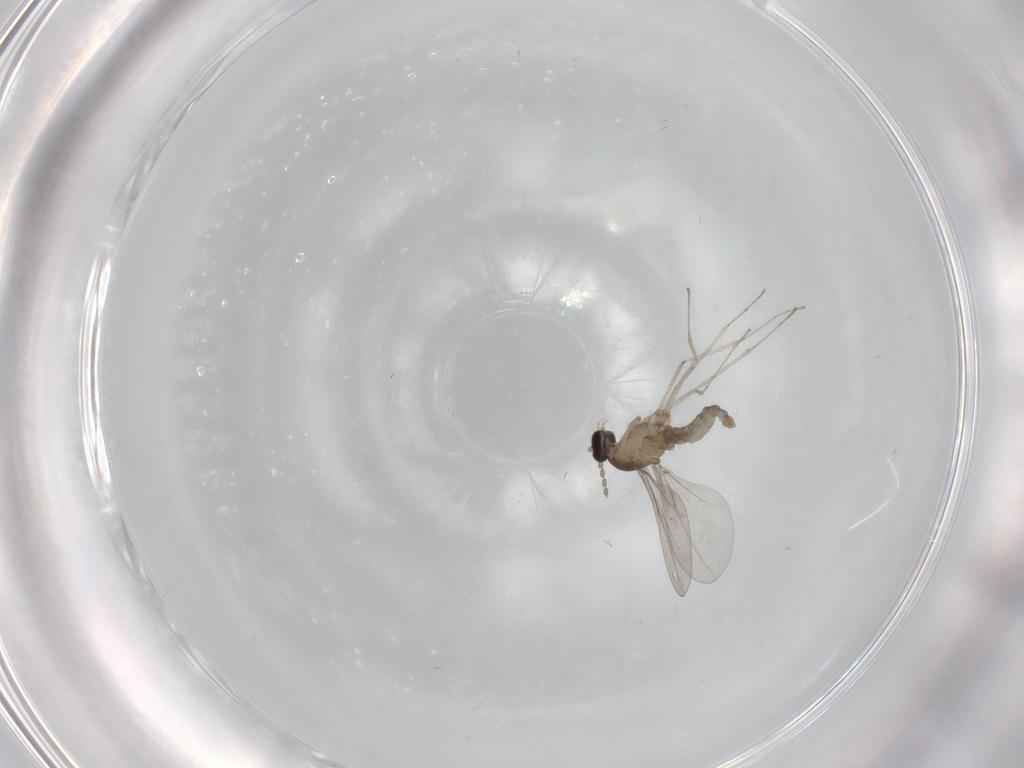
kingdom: Animalia
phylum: Arthropoda
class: Insecta
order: Diptera
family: Cecidomyiidae
